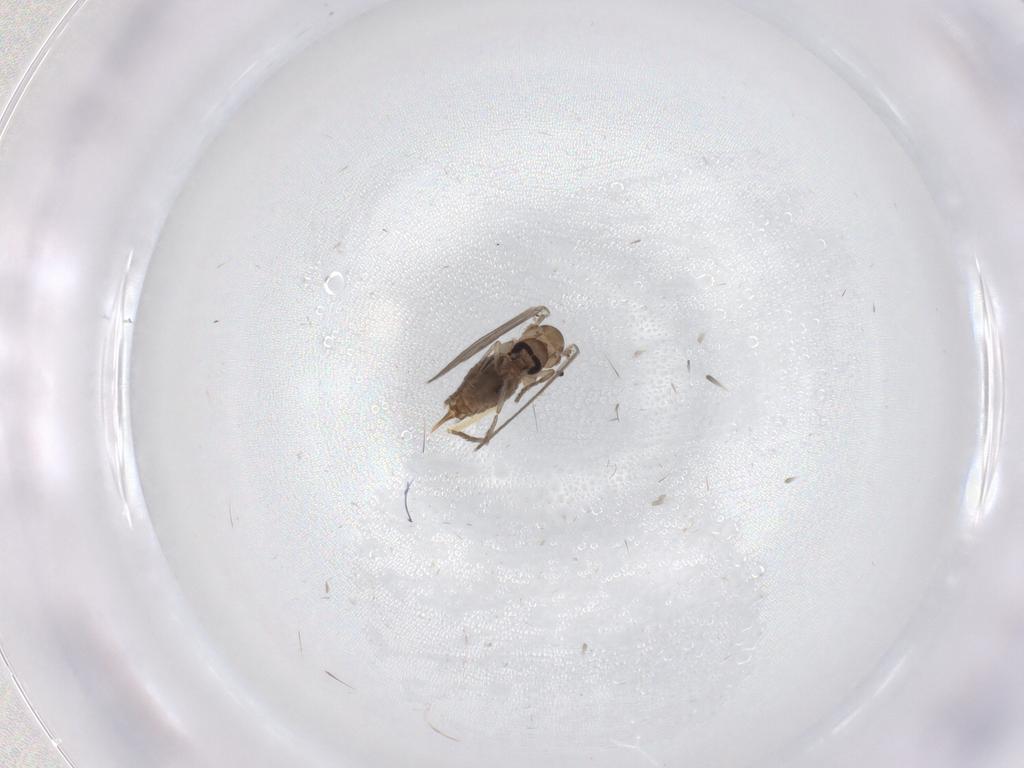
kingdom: Animalia
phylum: Arthropoda
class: Insecta
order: Diptera
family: Psychodidae
